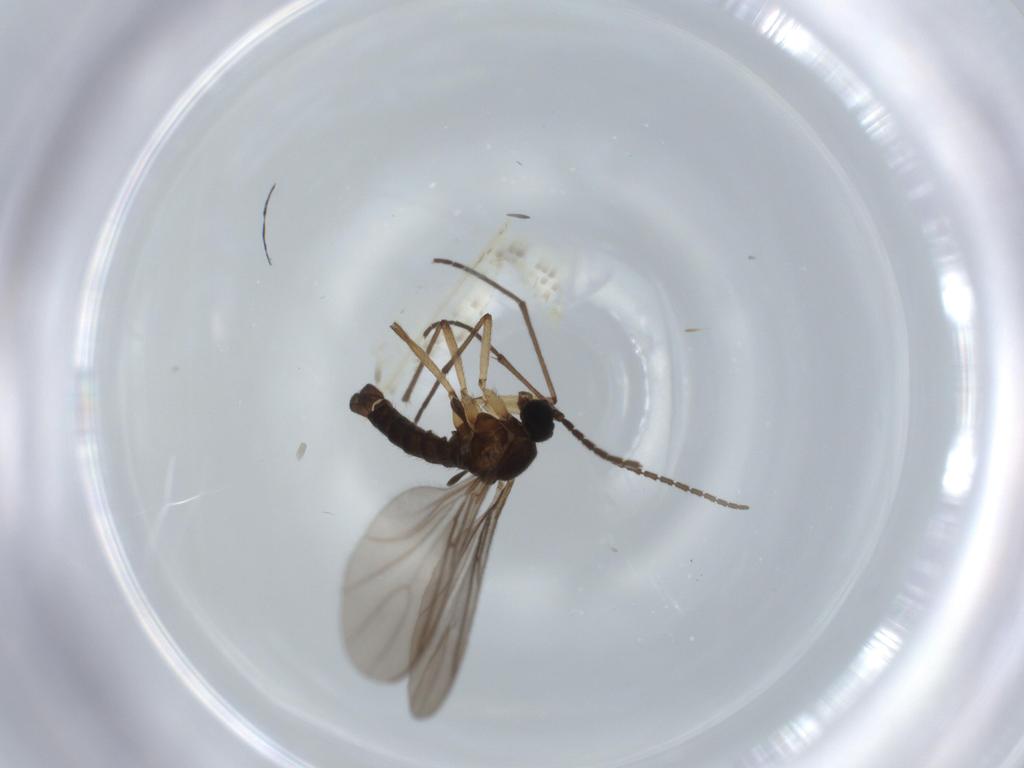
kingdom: Animalia
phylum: Arthropoda
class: Insecta
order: Diptera
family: Sciaridae
